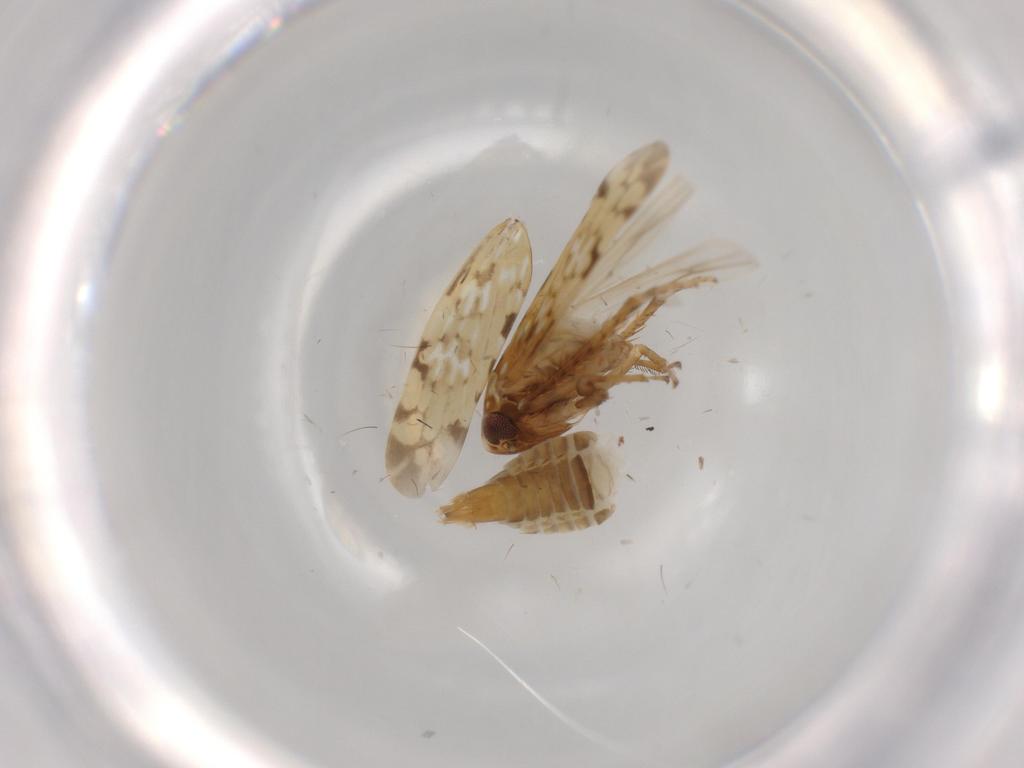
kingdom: Animalia
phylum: Arthropoda
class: Insecta
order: Hemiptera
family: Cicadellidae
